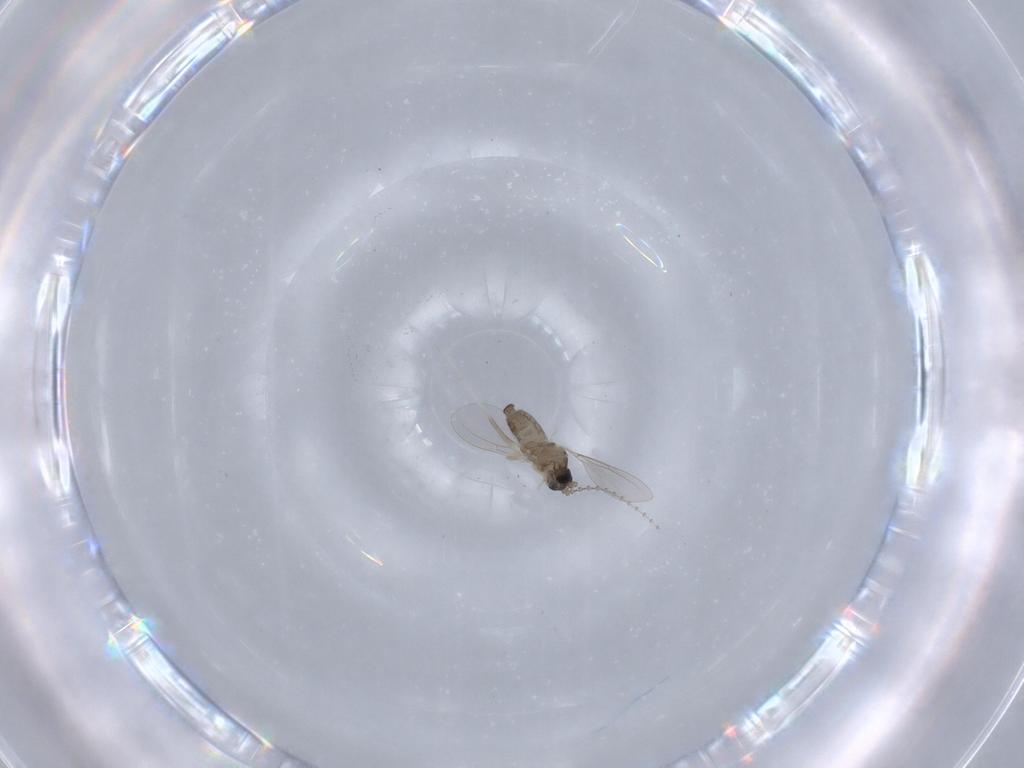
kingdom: Animalia
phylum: Arthropoda
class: Insecta
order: Diptera
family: Cecidomyiidae
